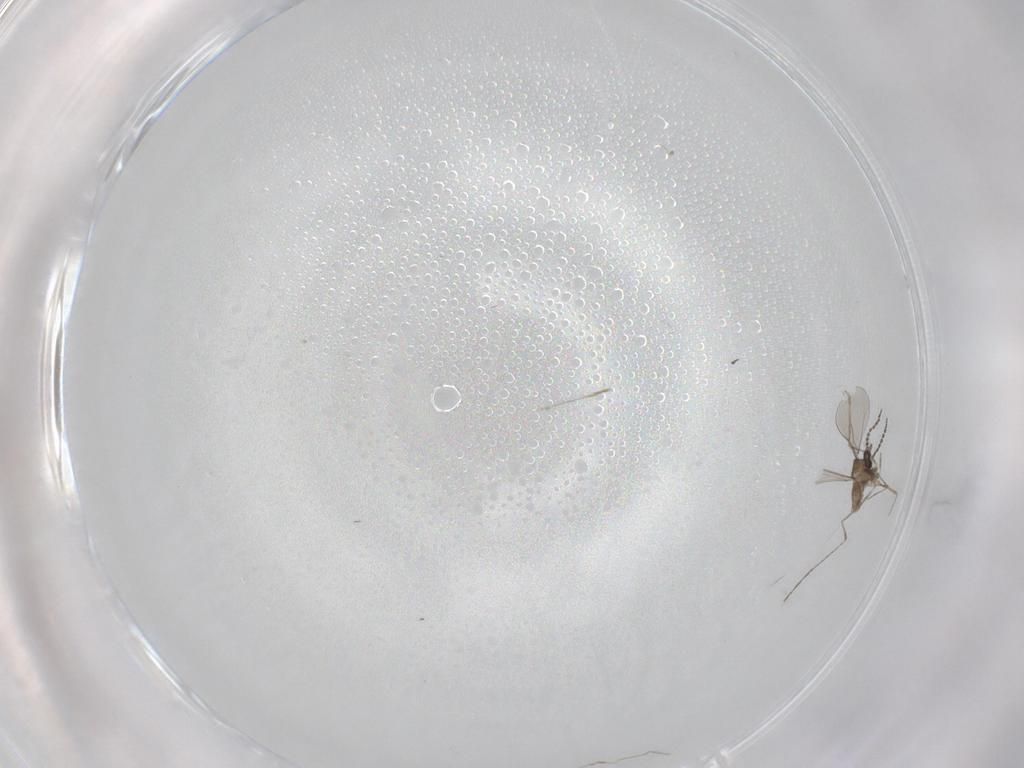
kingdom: Animalia
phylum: Arthropoda
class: Insecta
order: Diptera
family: Cecidomyiidae
